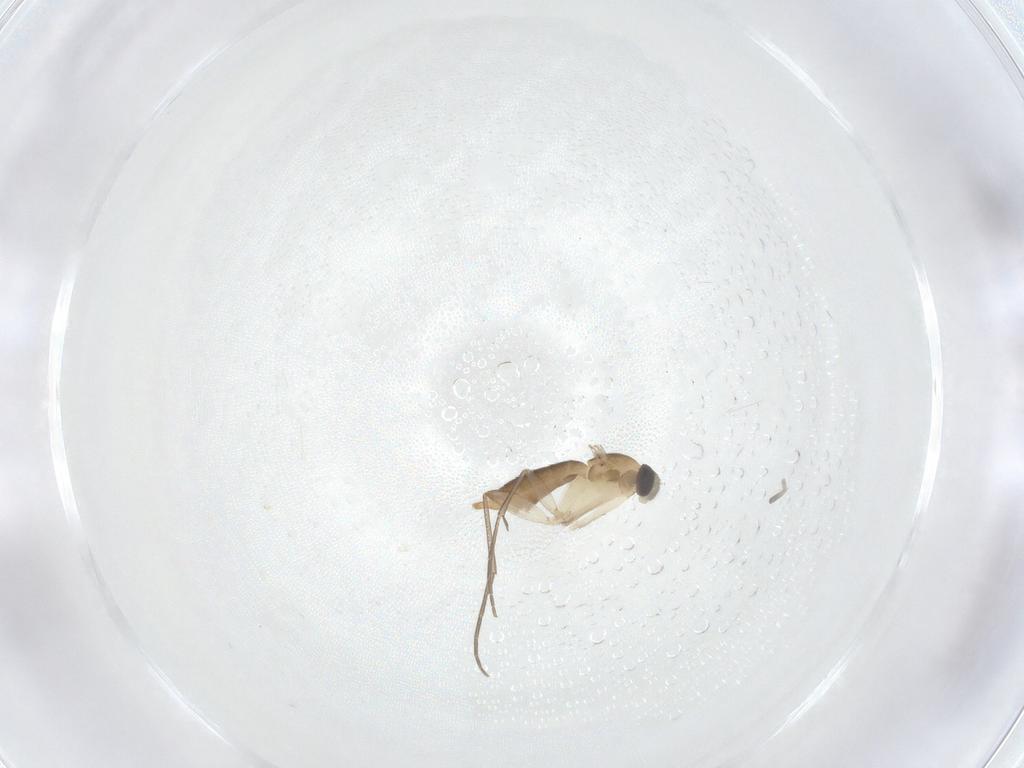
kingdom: Animalia
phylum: Arthropoda
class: Insecta
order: Diptera
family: Mycetophilidae
